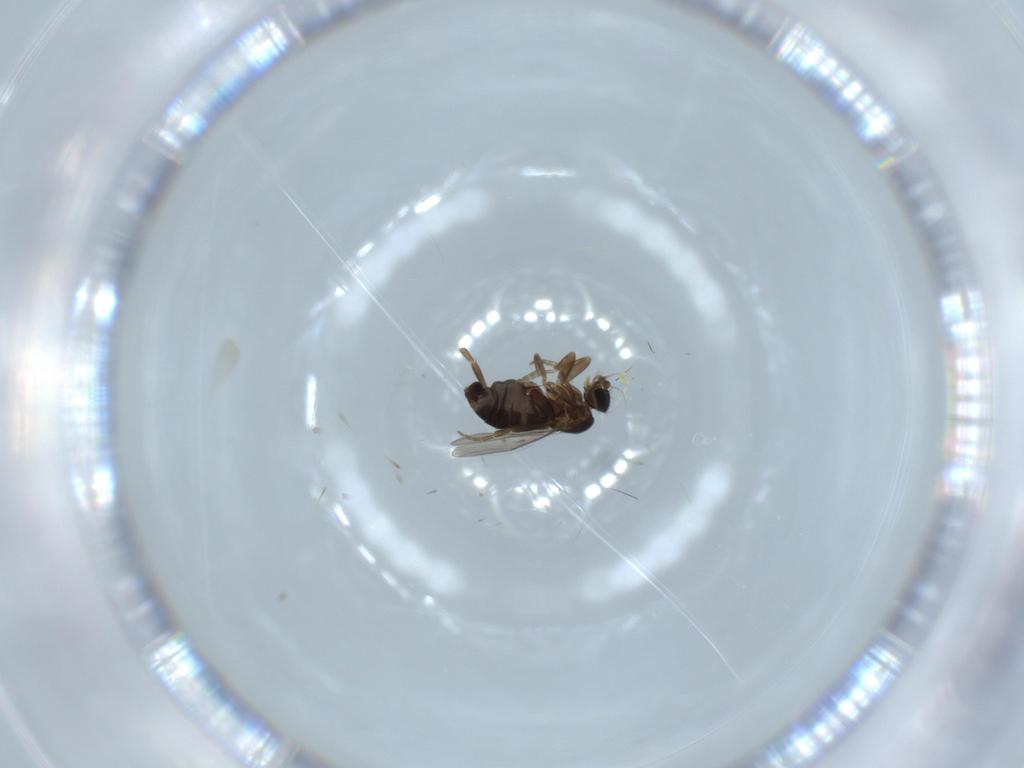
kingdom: Animalia
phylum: Arthropoda
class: Insecta
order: Diptera
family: Phoridae
